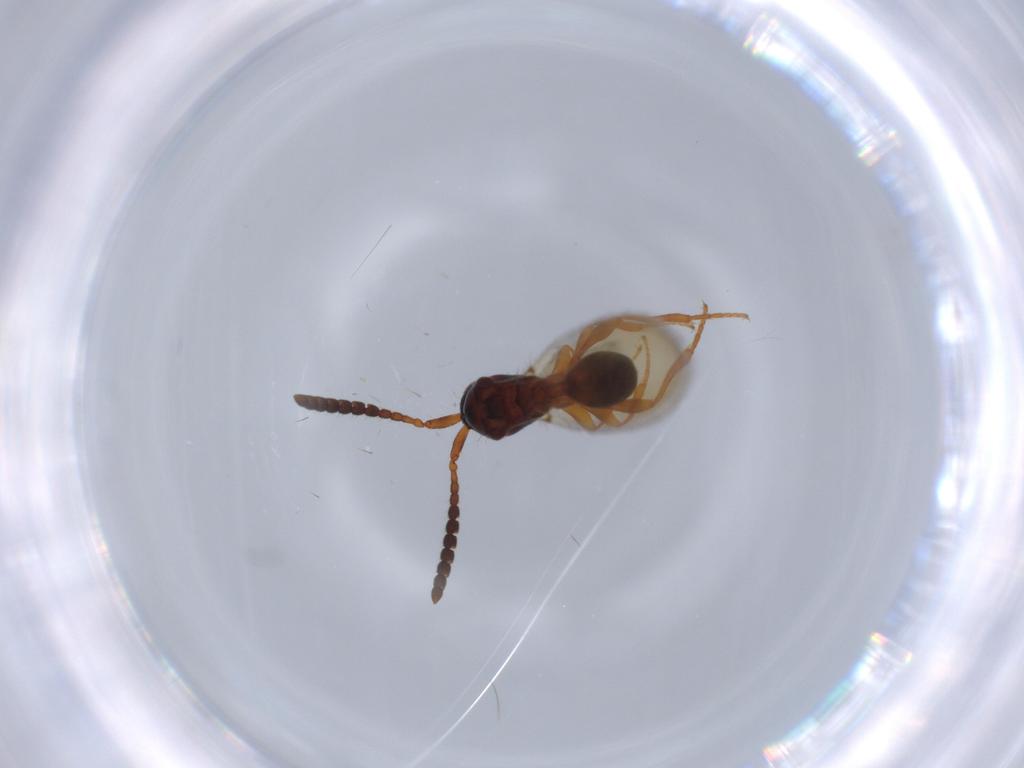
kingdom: Animalia
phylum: Arthropoda
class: Insecta
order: Hymenoptera
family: Diapriidae
